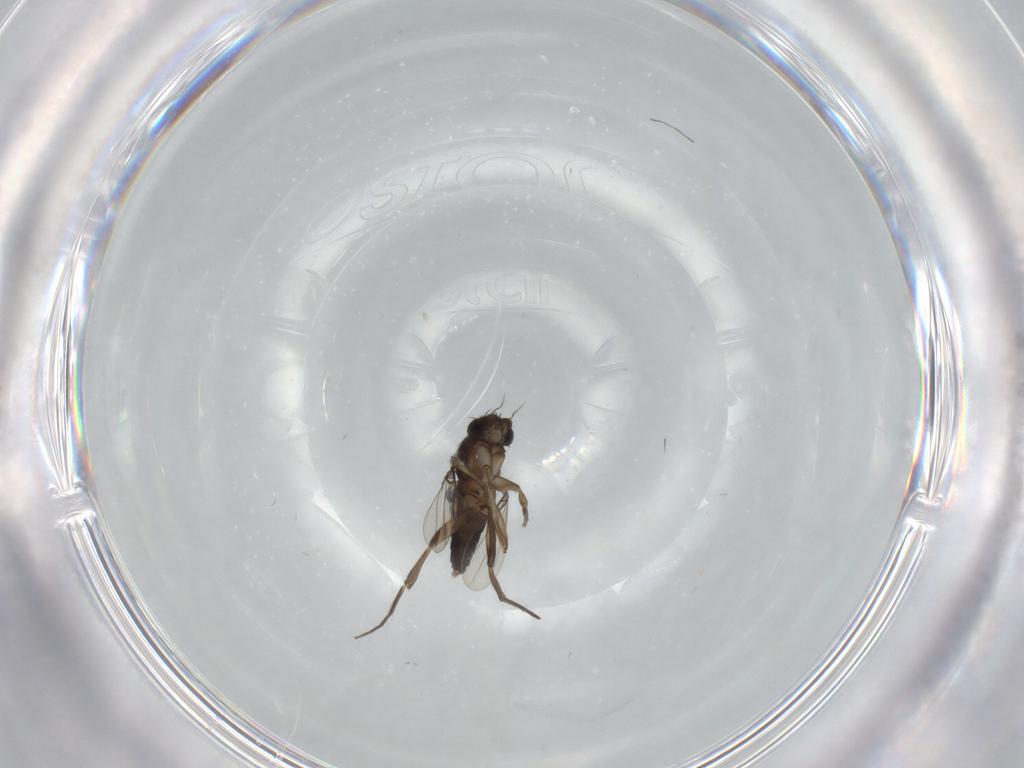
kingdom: Animalia
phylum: Arthropoda
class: Insecta
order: Diptera
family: Phoridae
